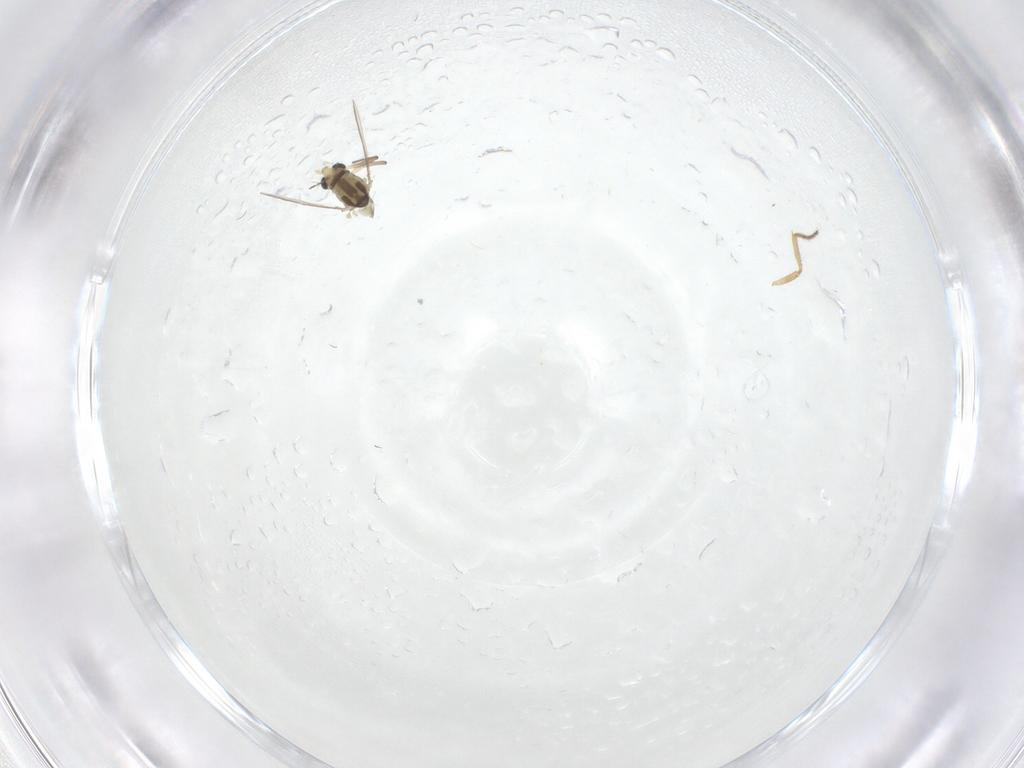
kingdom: Animalia
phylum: Arthropoda
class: Insecta
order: Diptera
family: Chironomidae
